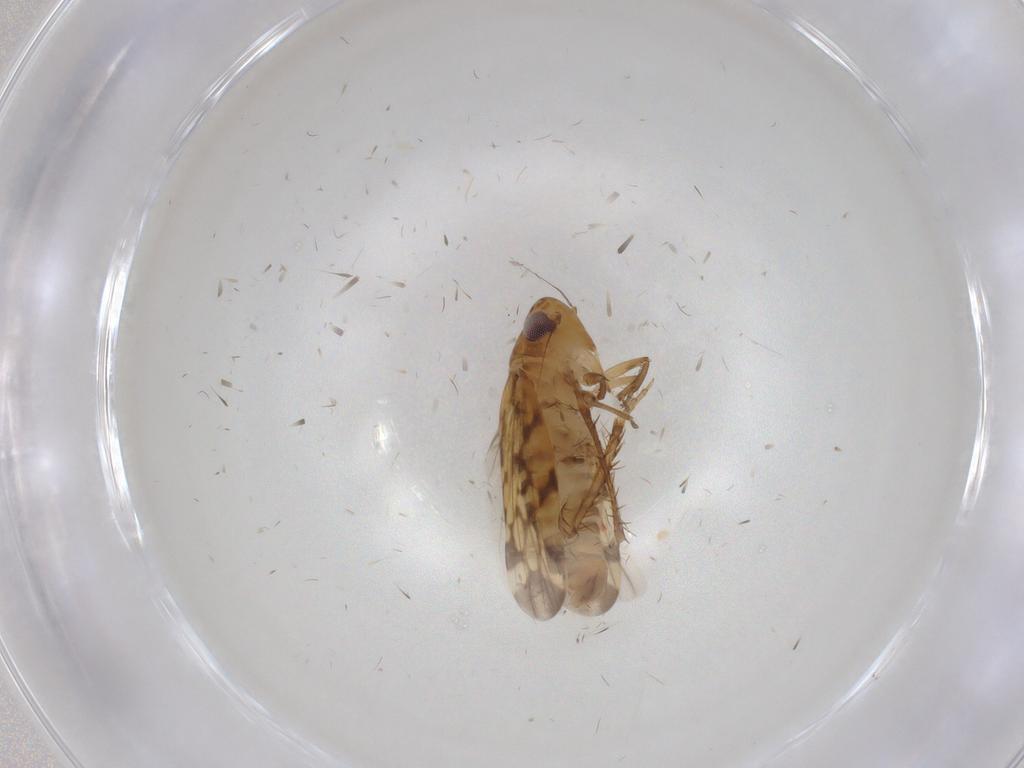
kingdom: Animalia
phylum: Arthropoda
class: Insecta
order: Hemiptera
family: Cicadellidae
